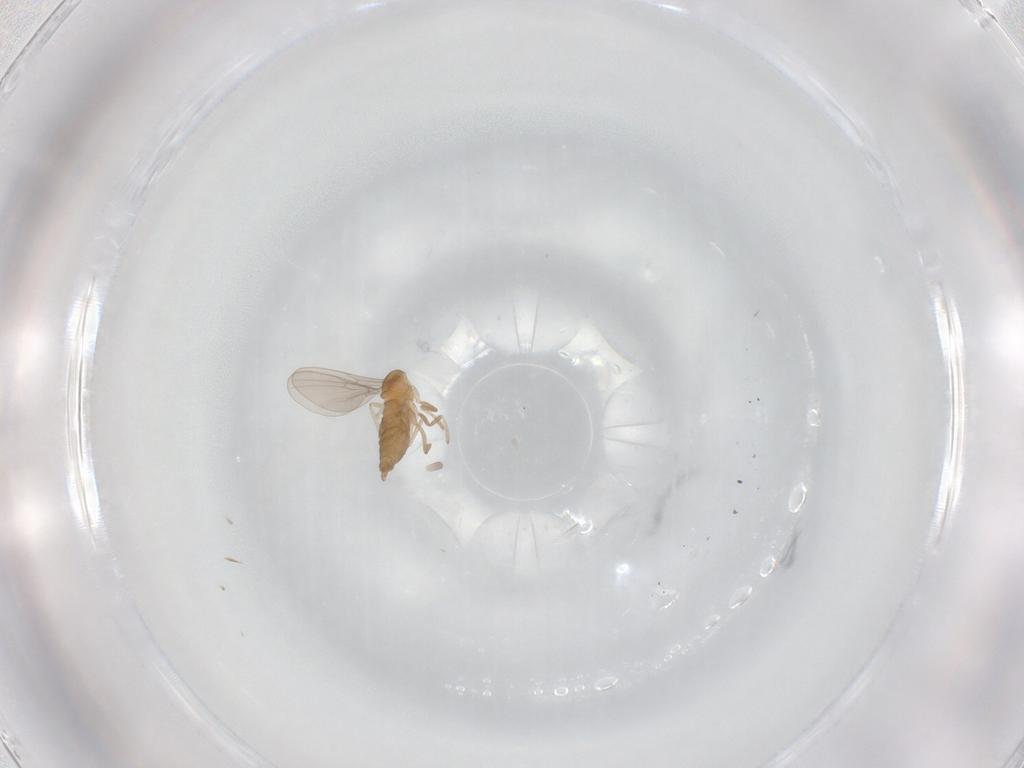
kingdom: Animalia
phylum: Arthropoda
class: Insecta
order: Diptera
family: Cecidomyiidae
